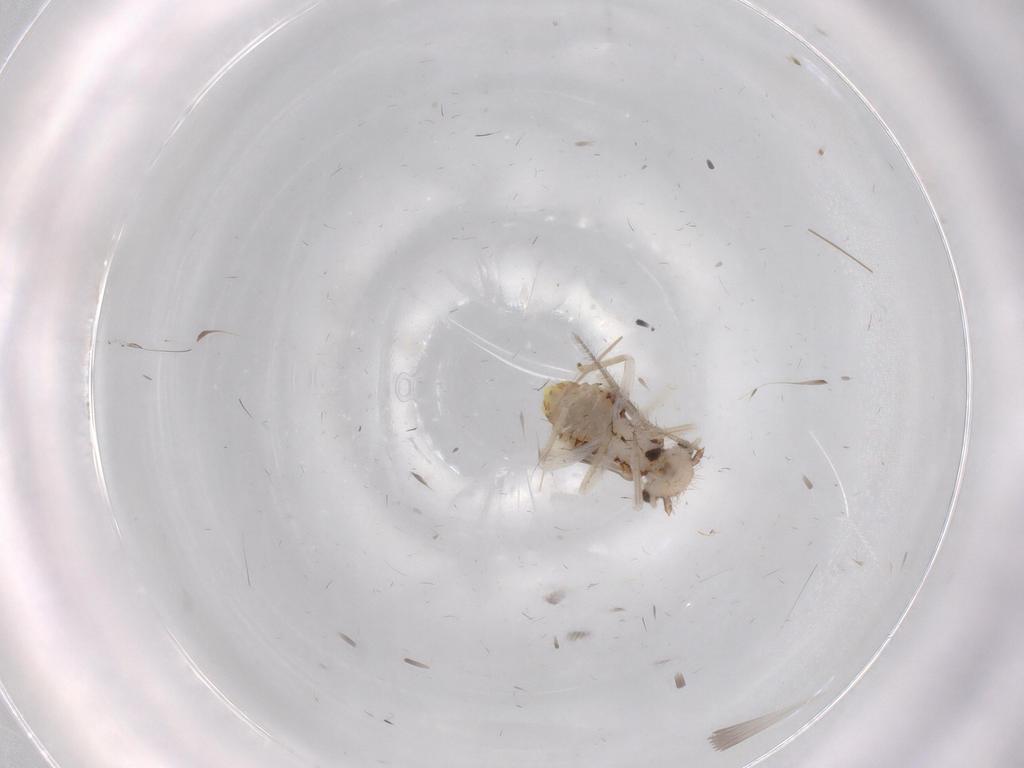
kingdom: Animalia
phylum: Arthropoda
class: Insecta
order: Psocodea
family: Caeciliusidae
